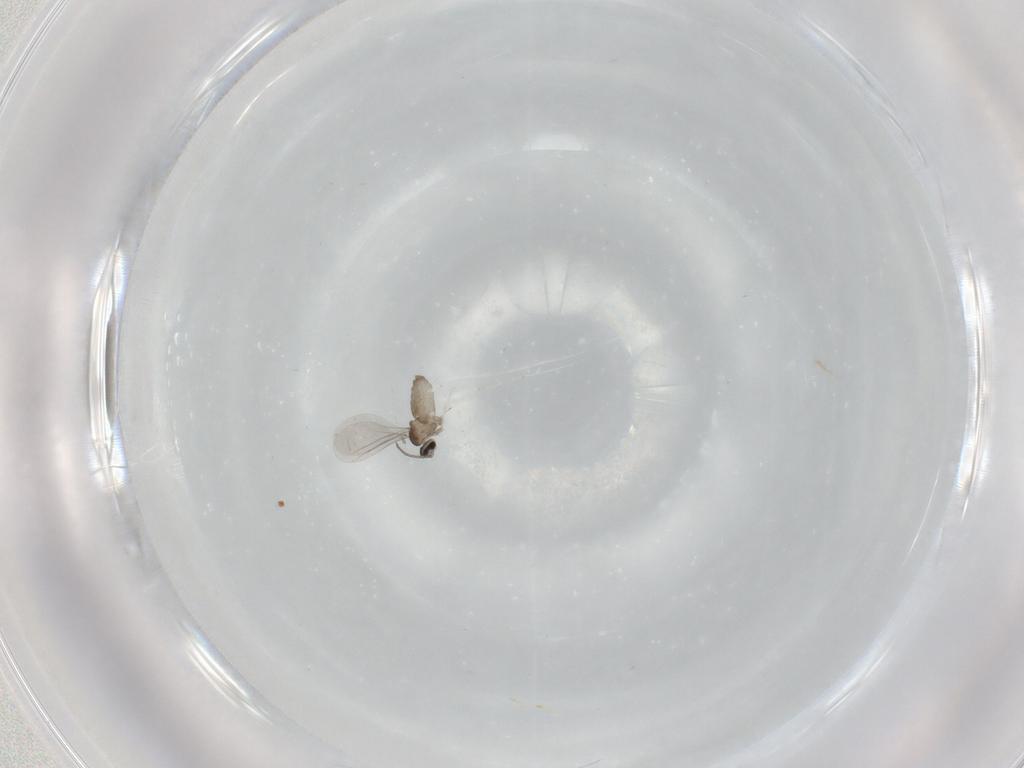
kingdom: Animalia
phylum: Arthropoda
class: Insecta
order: Diptera
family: Cecidomyiidae
